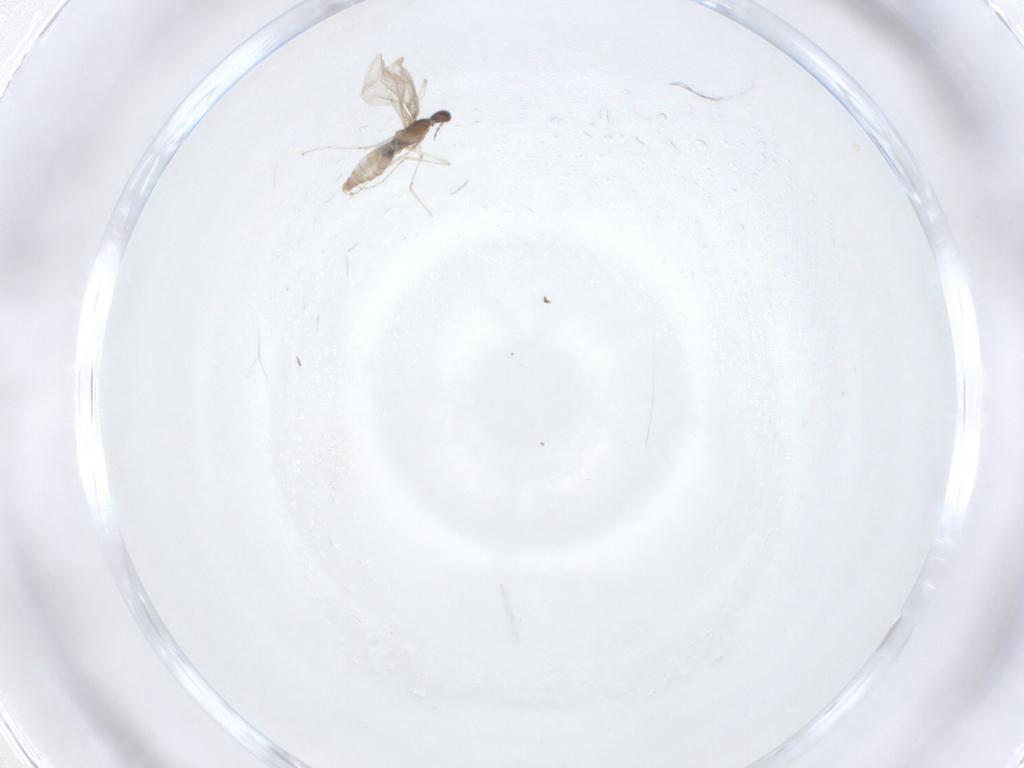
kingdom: Animalia
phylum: Arthropoda
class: Insecta
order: Diptera
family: Cecidomyiidae
